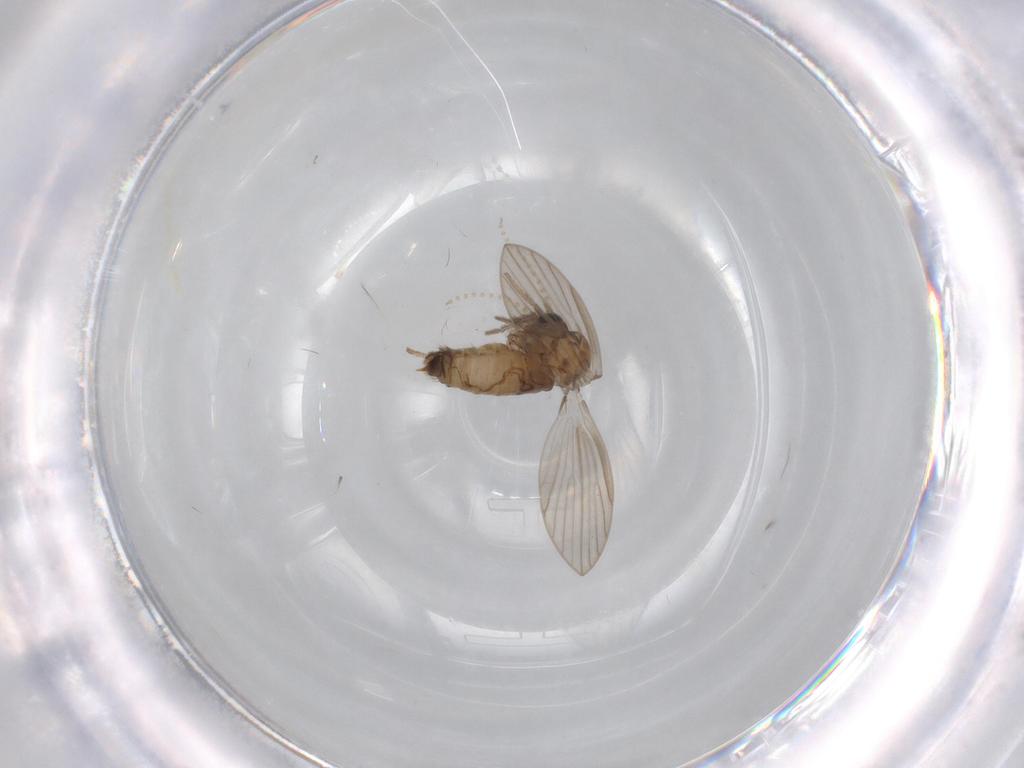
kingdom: Animalia
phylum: Arthropoda
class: Insecta
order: Diptera
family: Psychodidae
